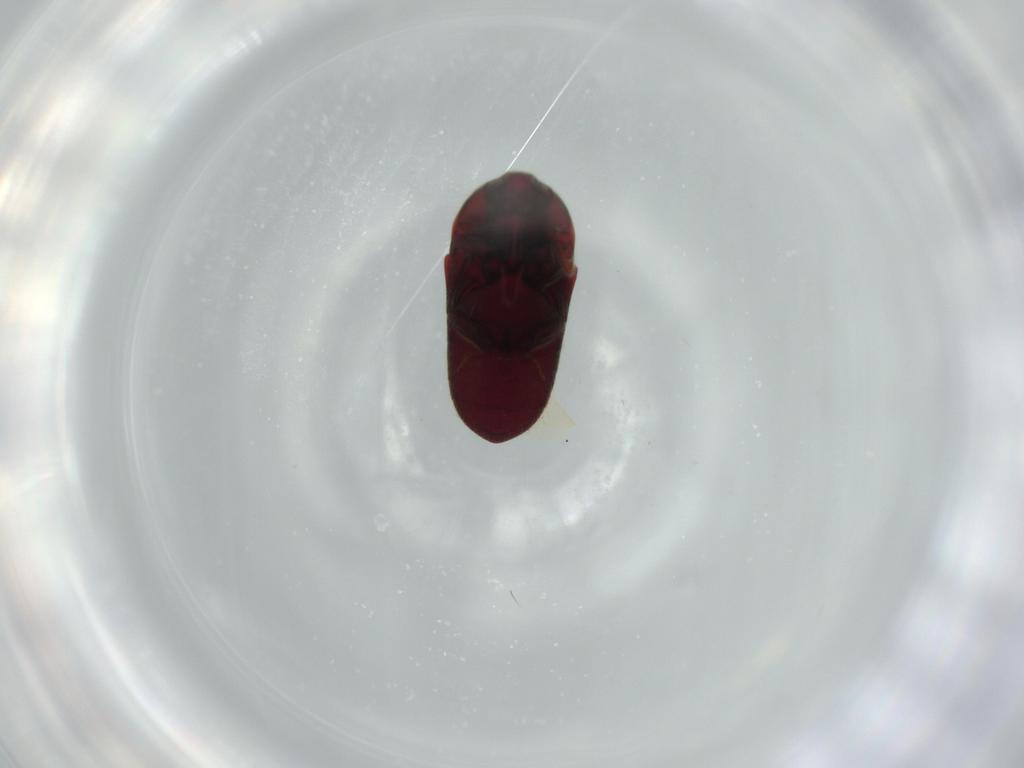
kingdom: Animalia
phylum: Arthropoda
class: Insecta
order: Coleoptera
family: Throscidae
